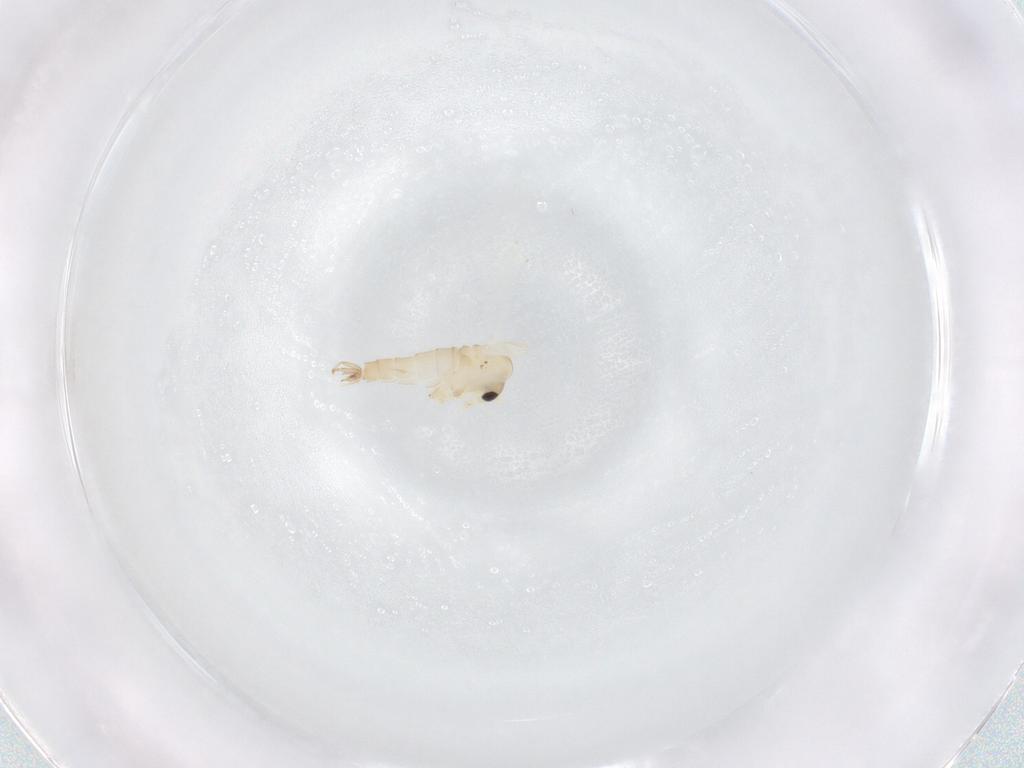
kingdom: Animalia
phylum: Arthropoda
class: Insecta
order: Diptera
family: Psychodidae
